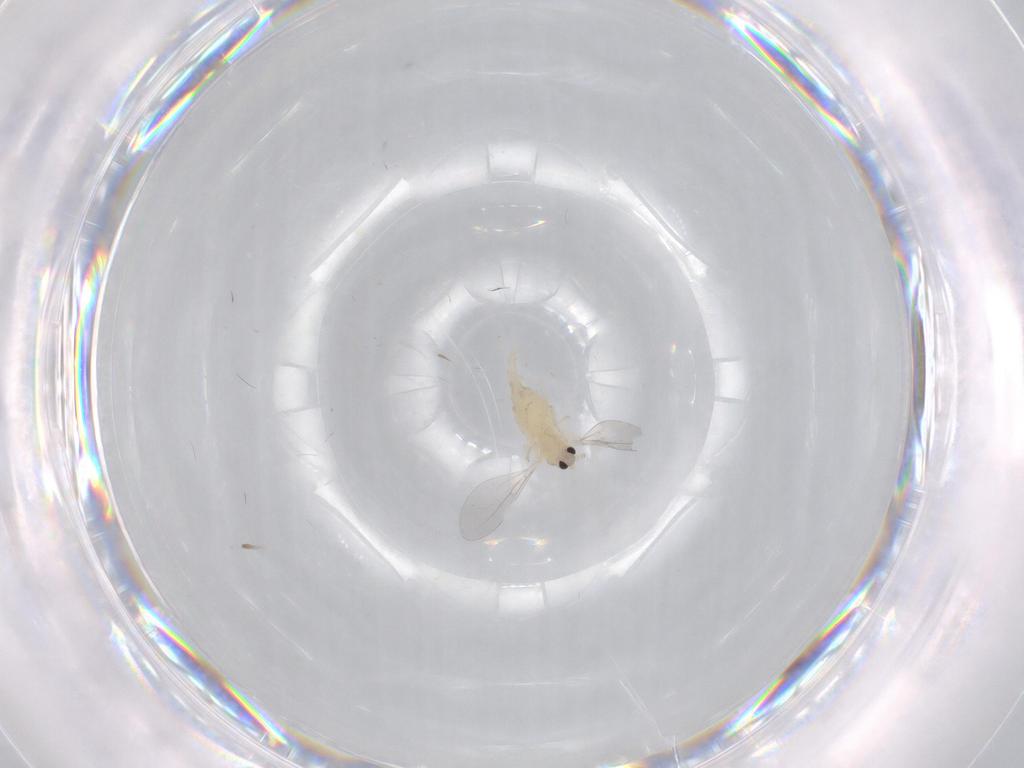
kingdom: Animalia
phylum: Arthropoda
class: Insecta
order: Diptera
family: Cecidomyiidae
